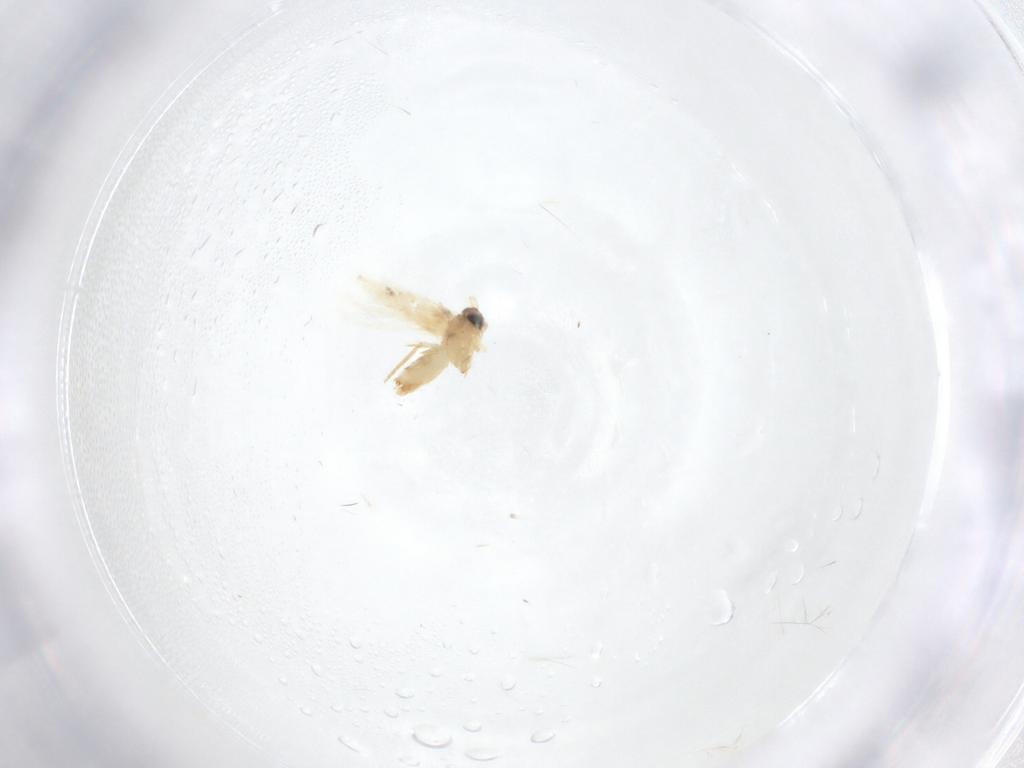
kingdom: Animalia
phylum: Arthropoda
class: Insecta
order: Lepidoptera
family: Crambidae
